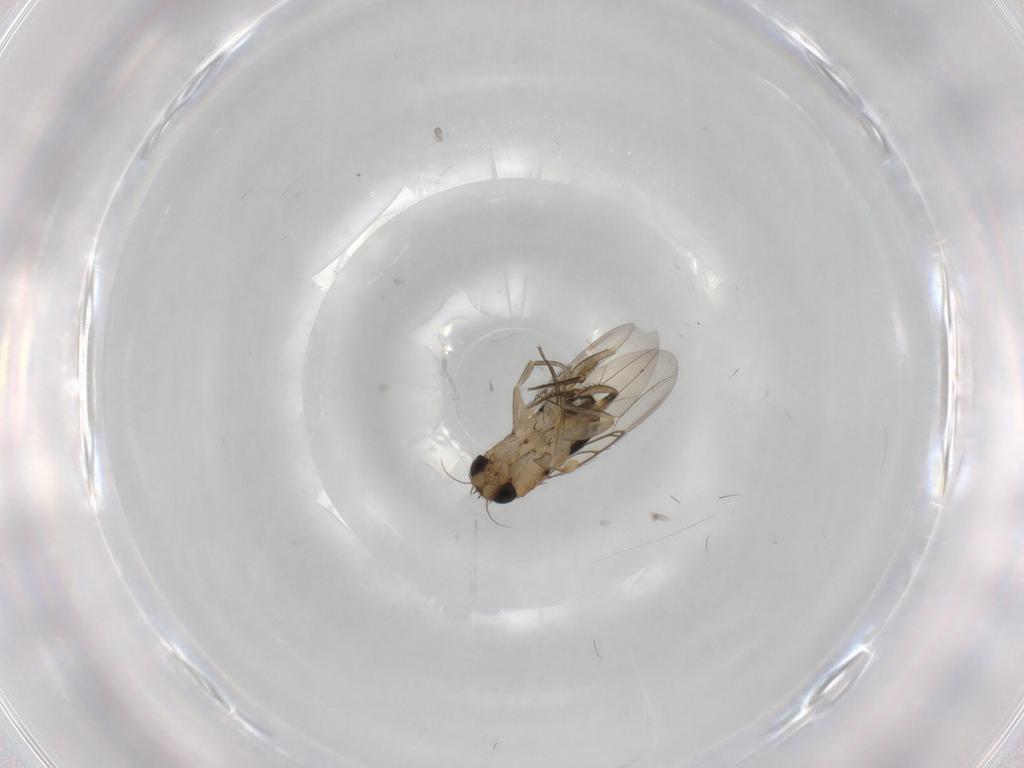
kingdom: Animalia
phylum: Arthropoda
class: Insecta
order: Diptera
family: Phoridae
